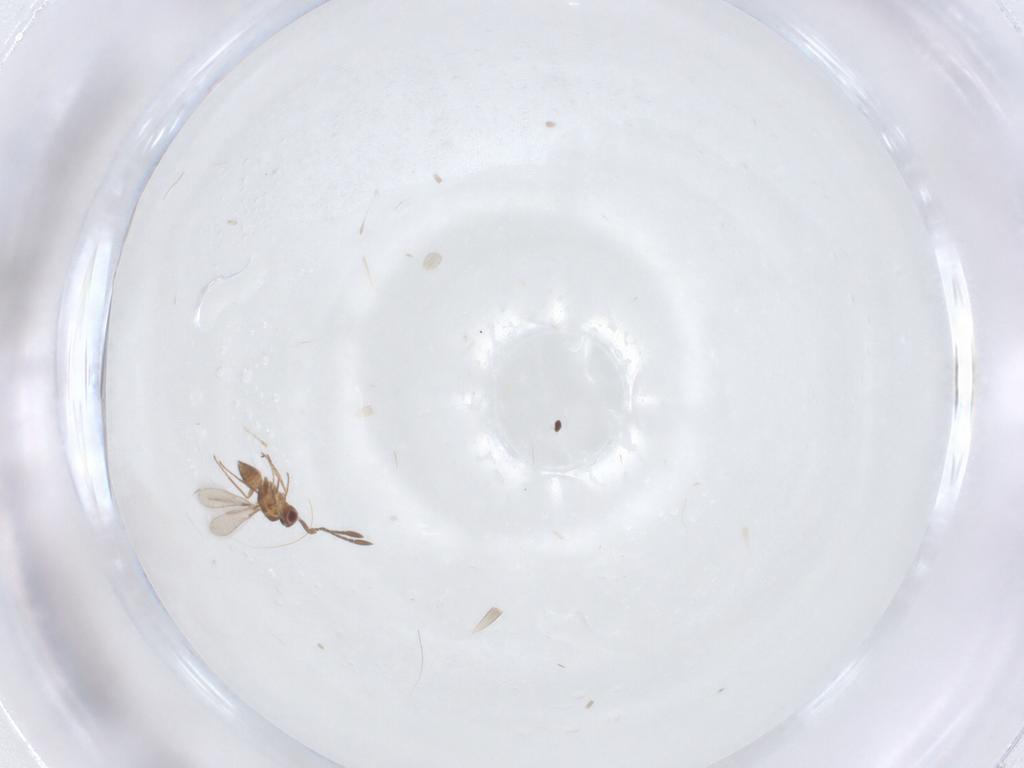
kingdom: Animalia
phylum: Arthropoda
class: Insecta
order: Hymenoptera
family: Mymaridae
